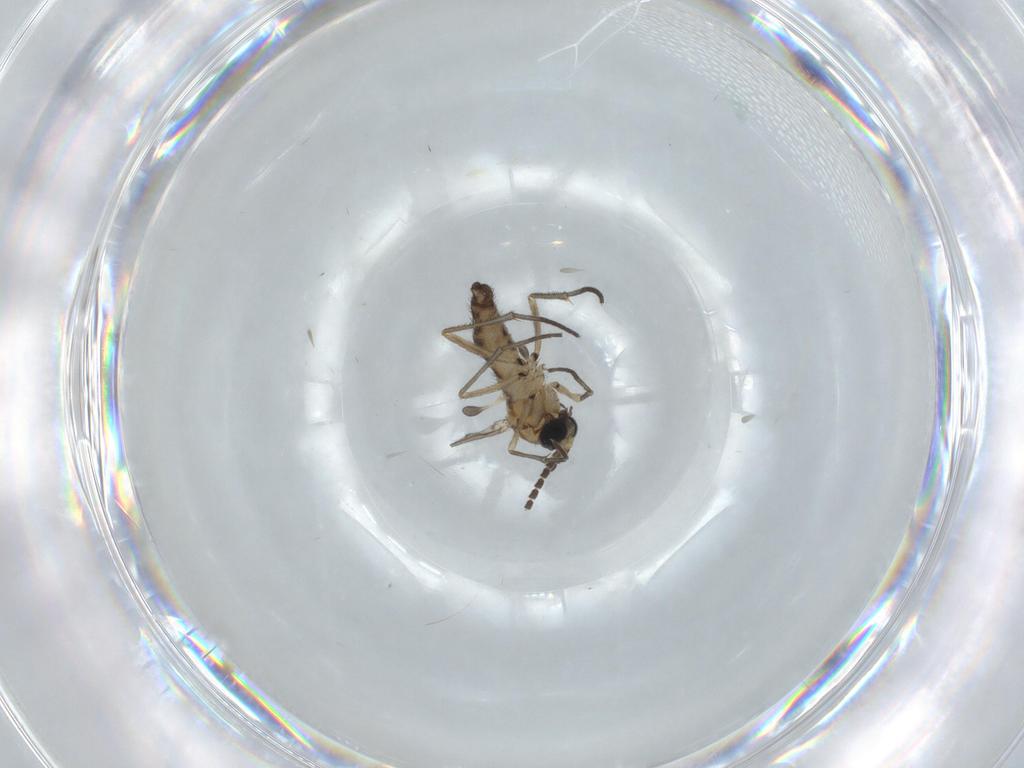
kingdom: Animalia
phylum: Arthropoda
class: Insecta
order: Diptera
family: Sciaridae
